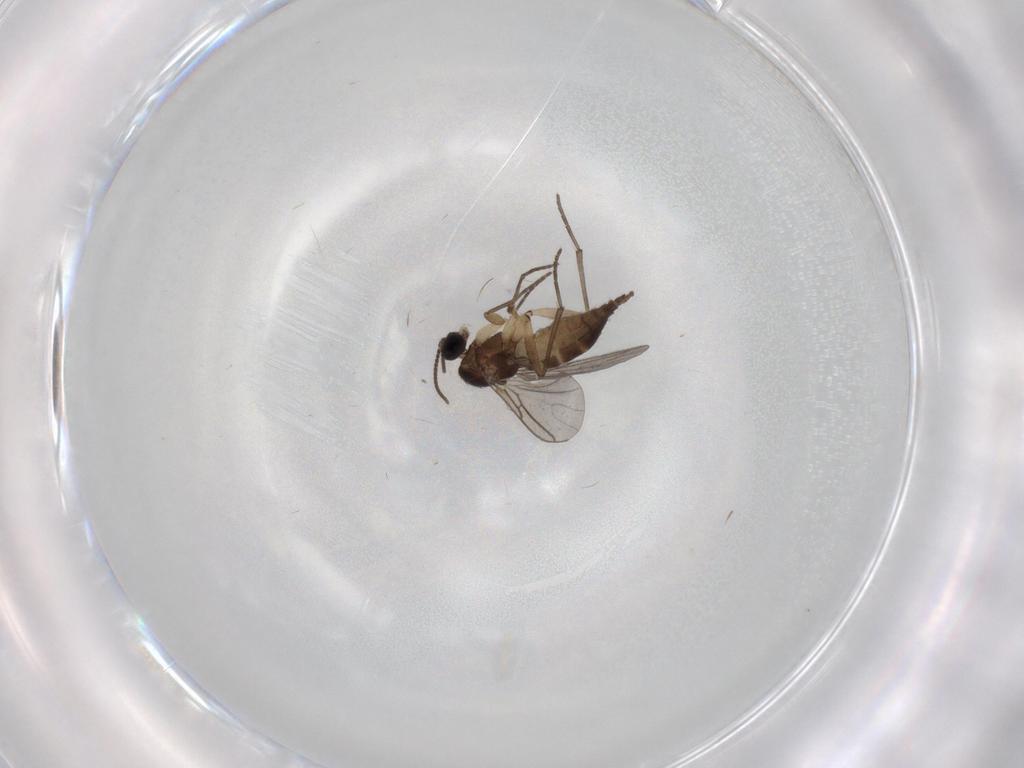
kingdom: Animalia
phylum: Arthropoda
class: Insecta
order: Diptera
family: Sciaridae
